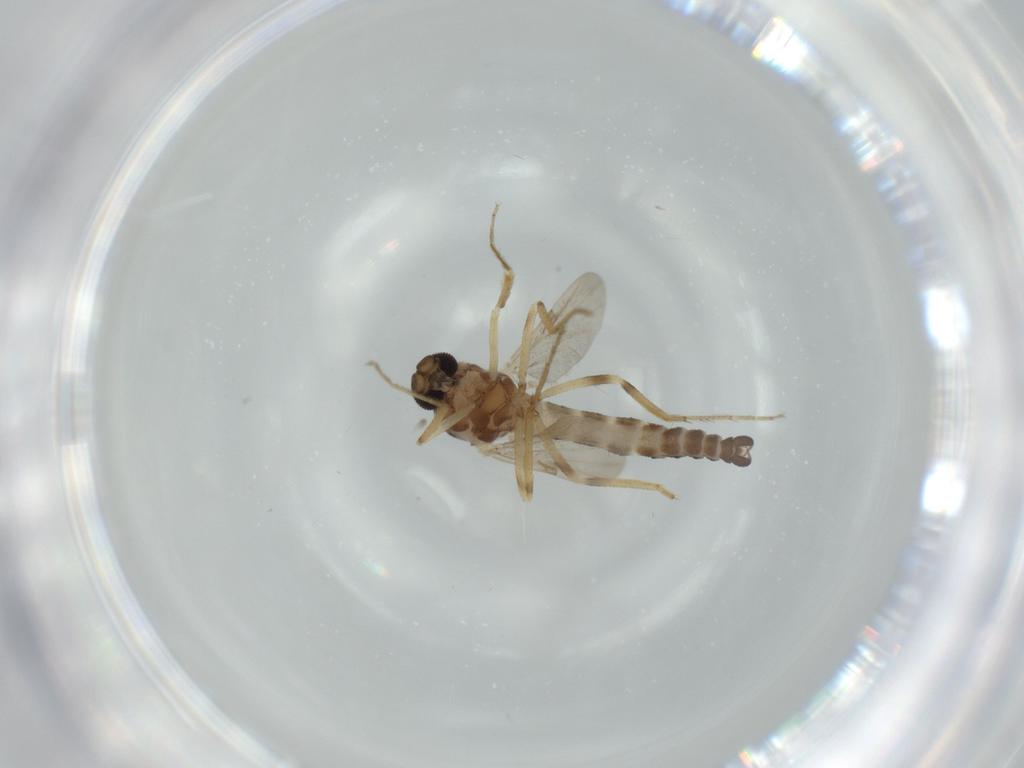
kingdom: Animalia
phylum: Arthropoda
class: Insecta
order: Diptera
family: Ceratopogonidae
